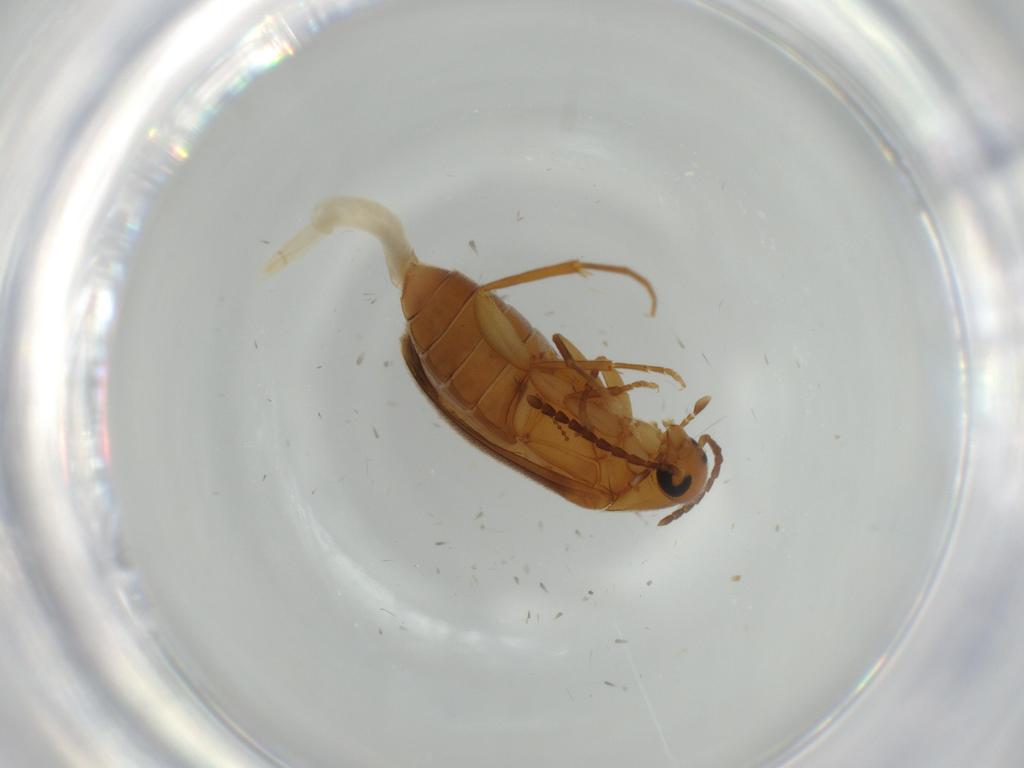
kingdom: Animalia
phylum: Arthropoda
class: Insecta
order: Coleoptera
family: Scraptiidae
